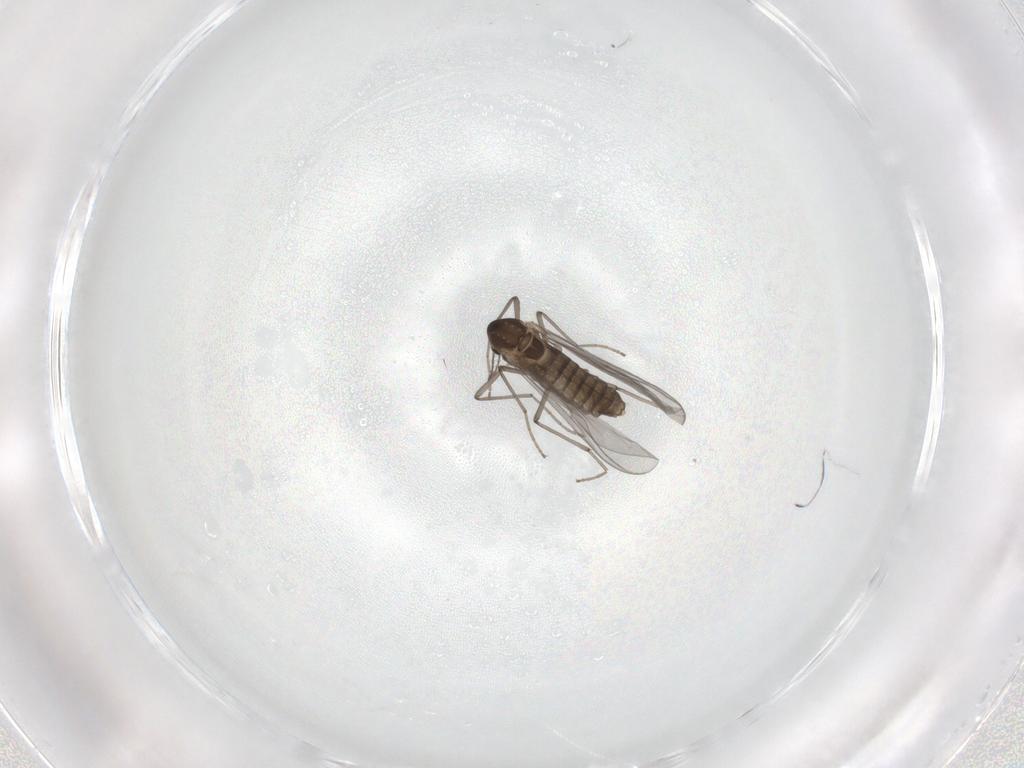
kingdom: Animalia
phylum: Arthropoda
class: Insecta
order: Diptera
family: Chironomidae
